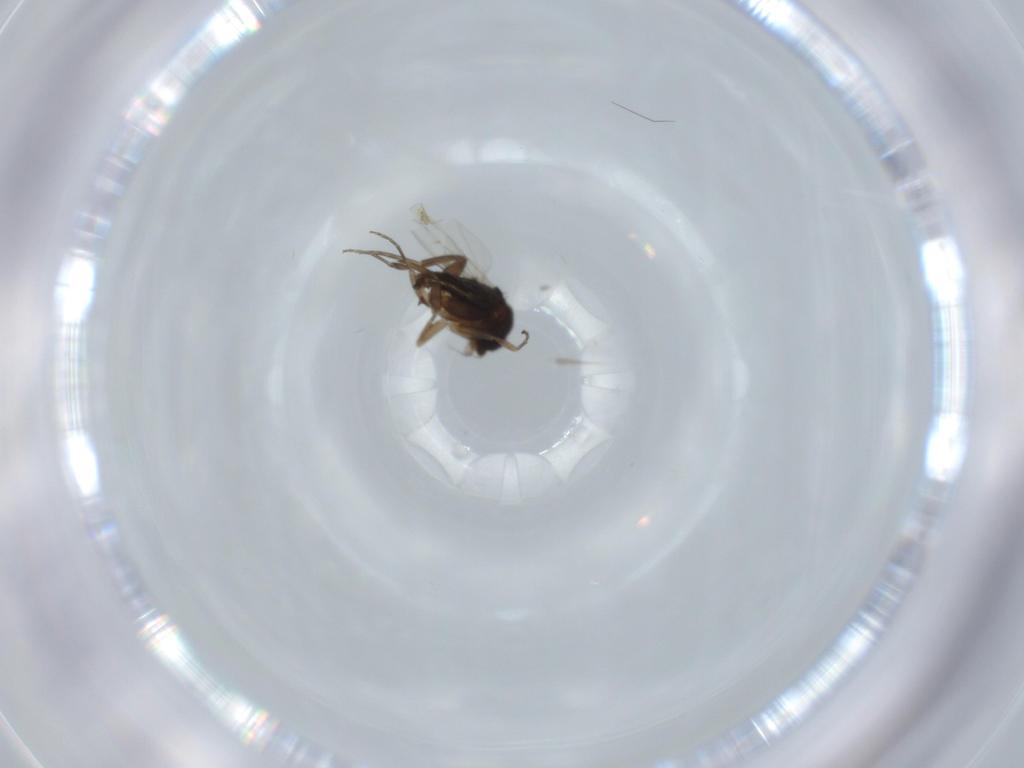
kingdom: Animalia
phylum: Arthropoda
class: Insecta
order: Diptera
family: Phoridae
